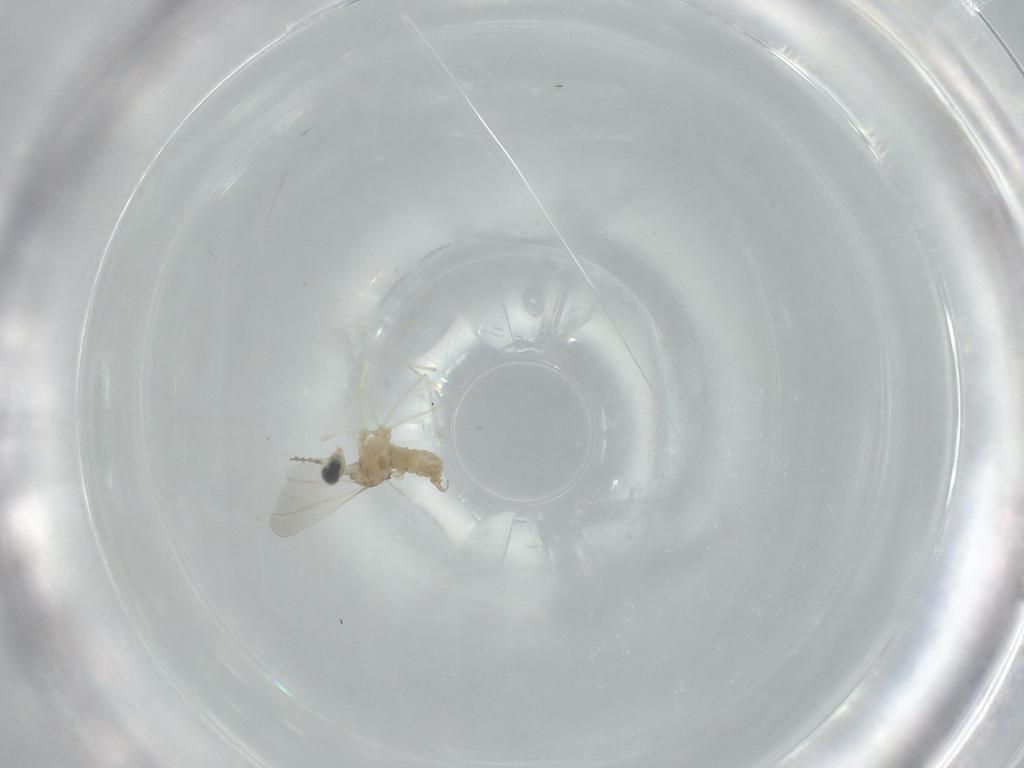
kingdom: Animalia
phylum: Arthropoda
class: Insecta
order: Diptera
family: Cecidomyiidae
